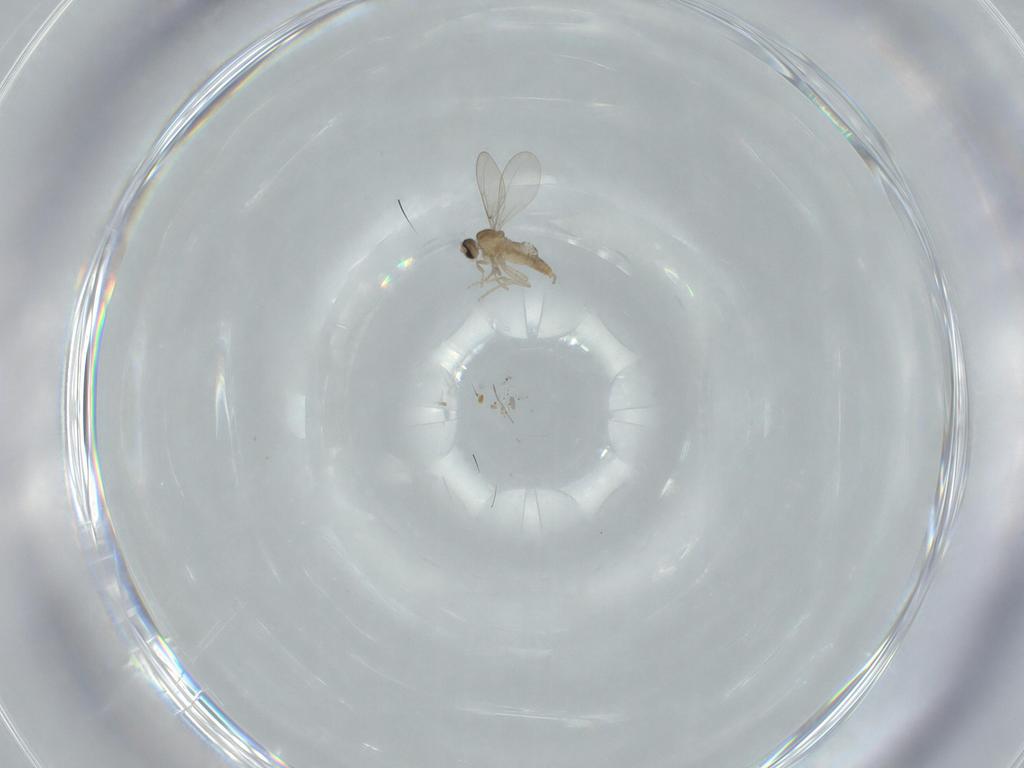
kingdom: Animalia
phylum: Arthropoda
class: Insecta
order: Diptera
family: Cecidomyiidae
